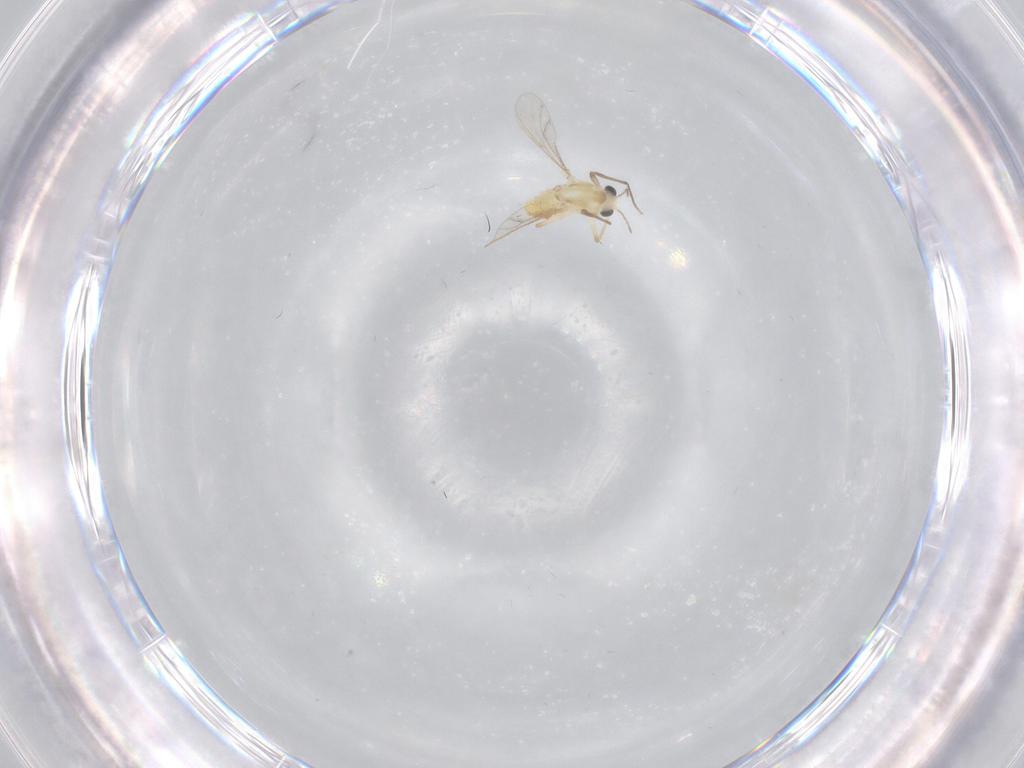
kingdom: Animalia
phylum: Arthropoda
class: Insecta
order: Diptera
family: Chironomidae
